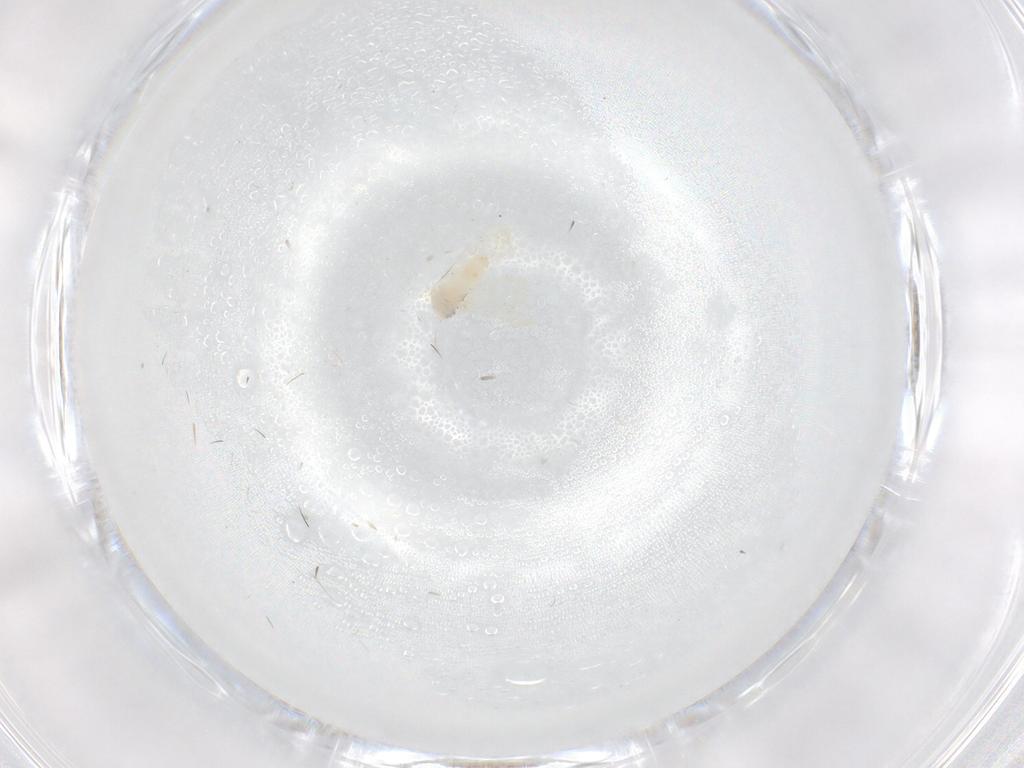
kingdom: Animalia
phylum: Arthropoda
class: Insecta
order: Hemiptera
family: Aleyrodidae
